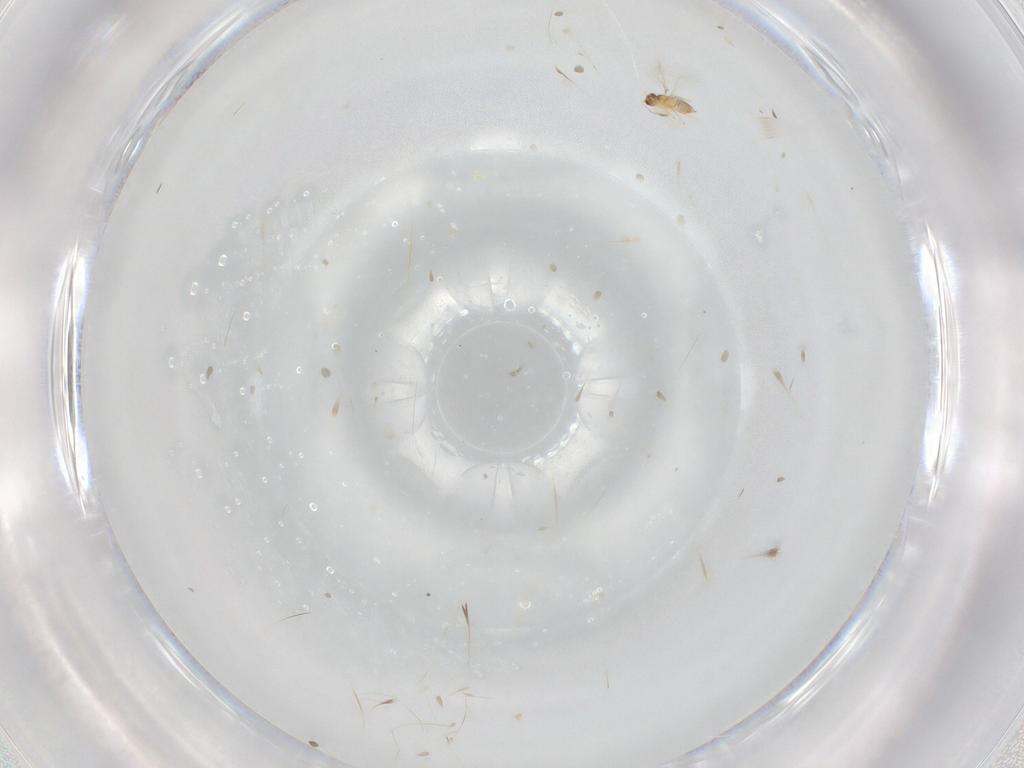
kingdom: Animalia
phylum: Arthropoda
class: Insecta
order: Hymenoptera
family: Mymaridae
